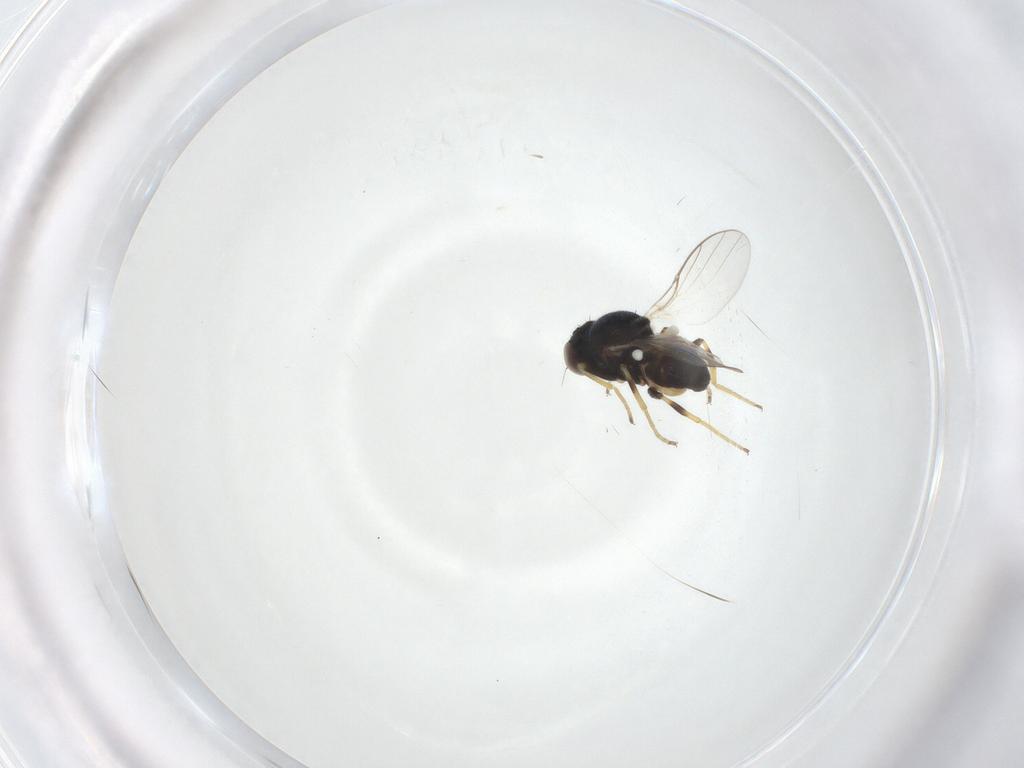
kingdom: Animalia
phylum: Arthropoda
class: Insecta
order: Diptera
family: Chloropidae
